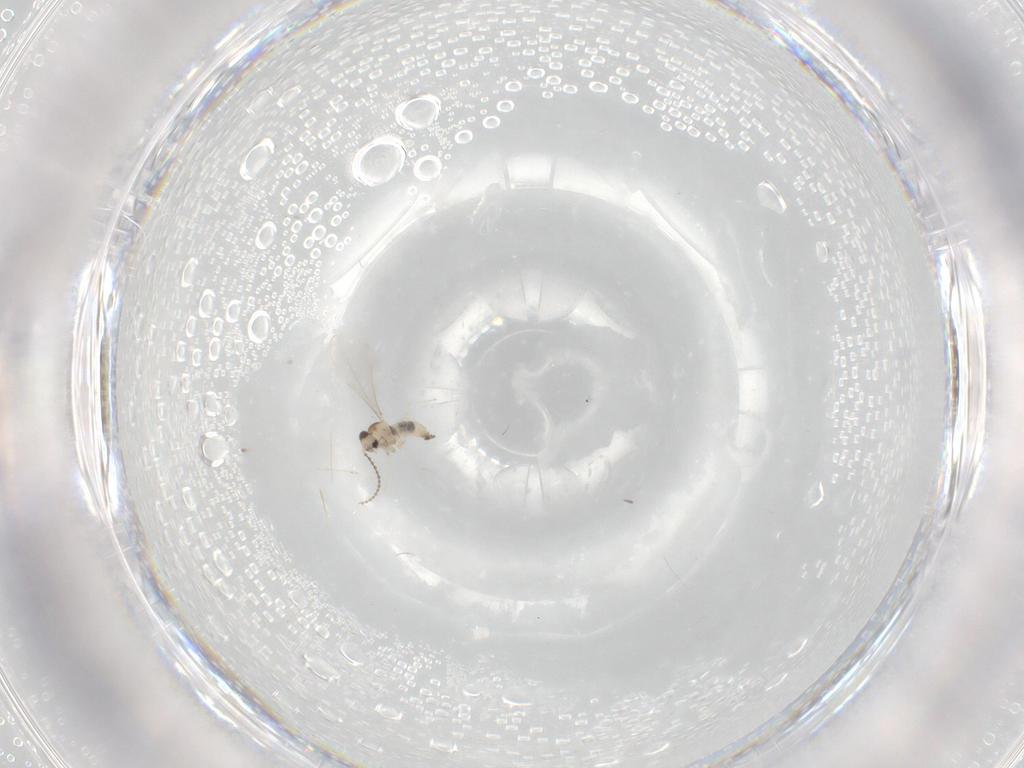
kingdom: Animalia
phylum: Arthropoda
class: Insecta
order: Diptera
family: Cecidomyiidae
